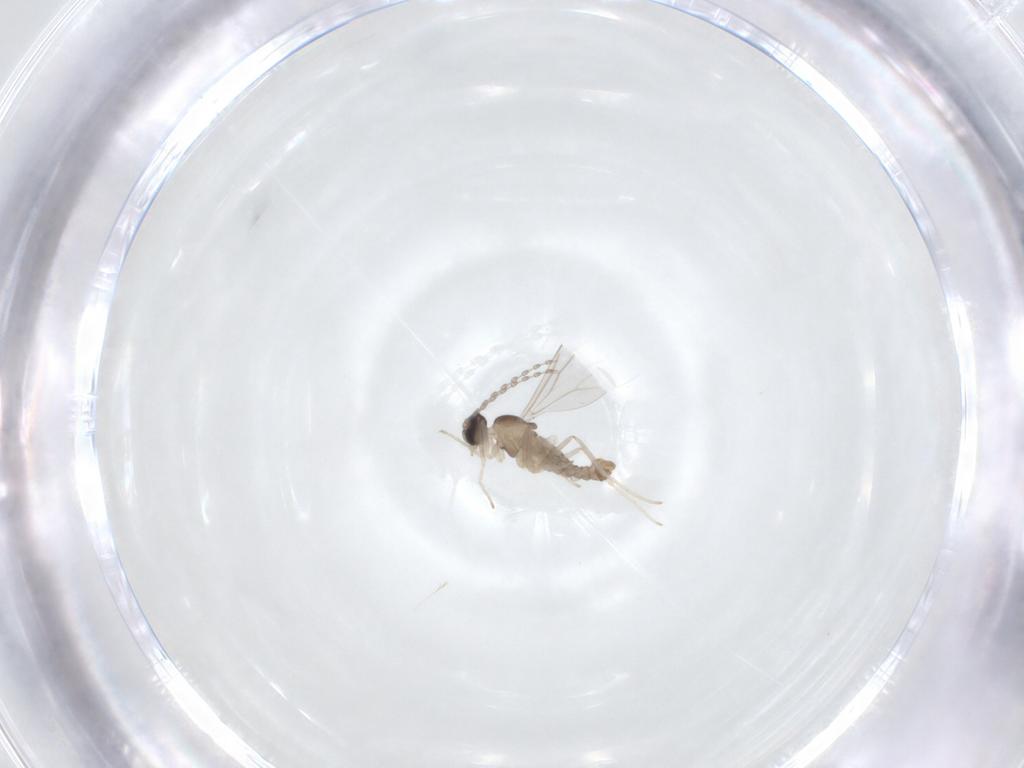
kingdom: Animalia
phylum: Arthropoda
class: Insecta
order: Diptera
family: Cecidomyiidae
